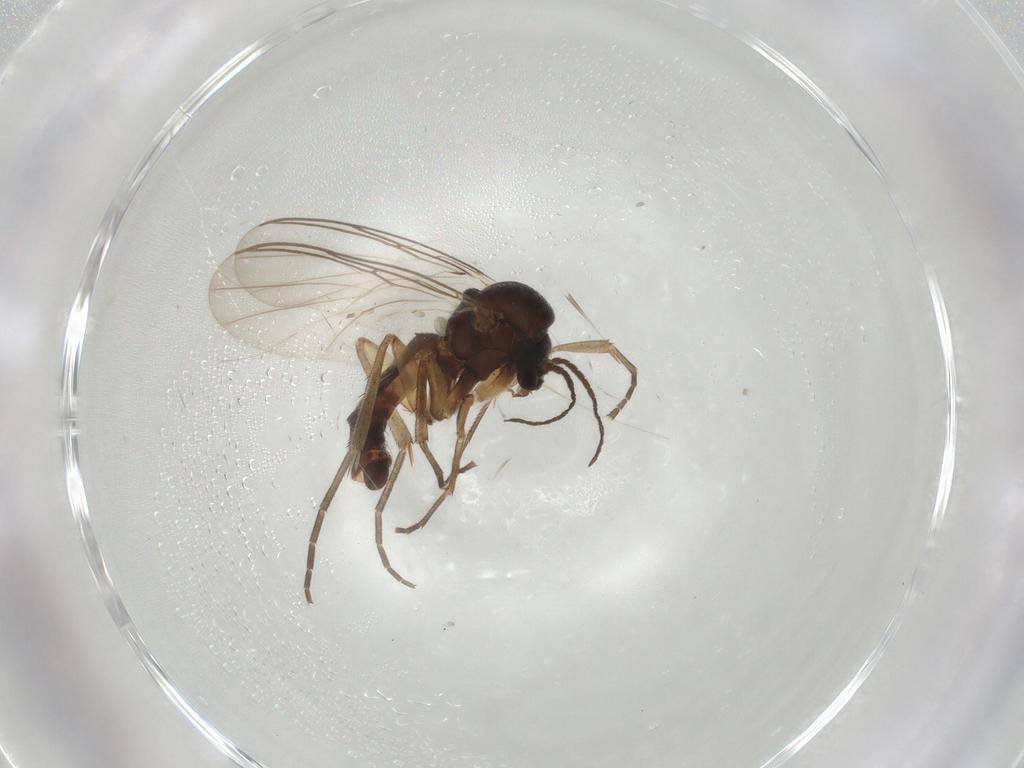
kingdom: Animalia
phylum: Arthropoda
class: Insecta
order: Diptera
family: Mycetophilidae
